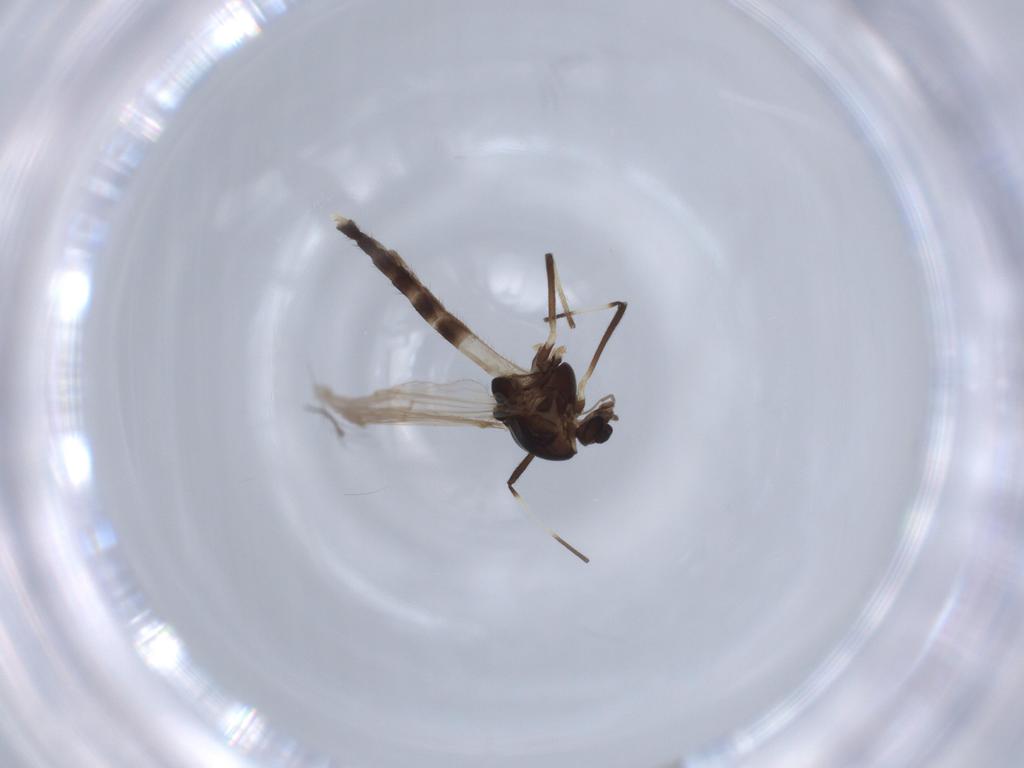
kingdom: Animalia
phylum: Arthropoda
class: Insecta
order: Diptera
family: Chironomidae
